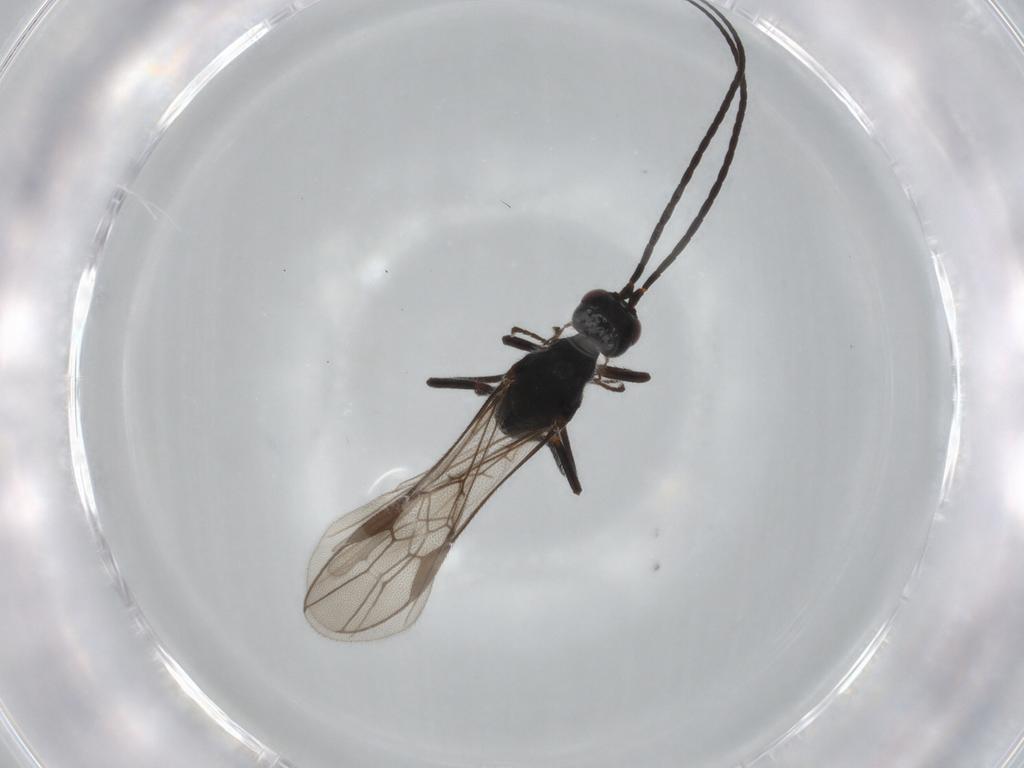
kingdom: Animalia
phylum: Arthropoda
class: Insecta
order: Hymenoptera
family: Braconidae
